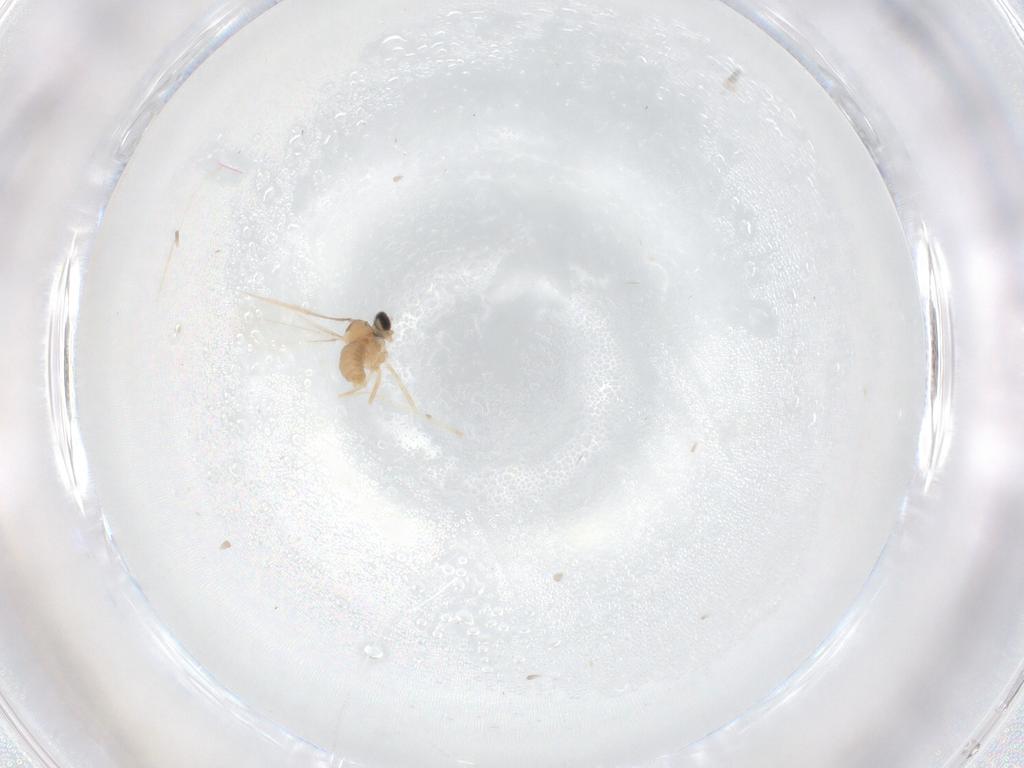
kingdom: Animalia
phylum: Arthropoda
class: Insecta
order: Diptera
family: Cecidomyiidae
